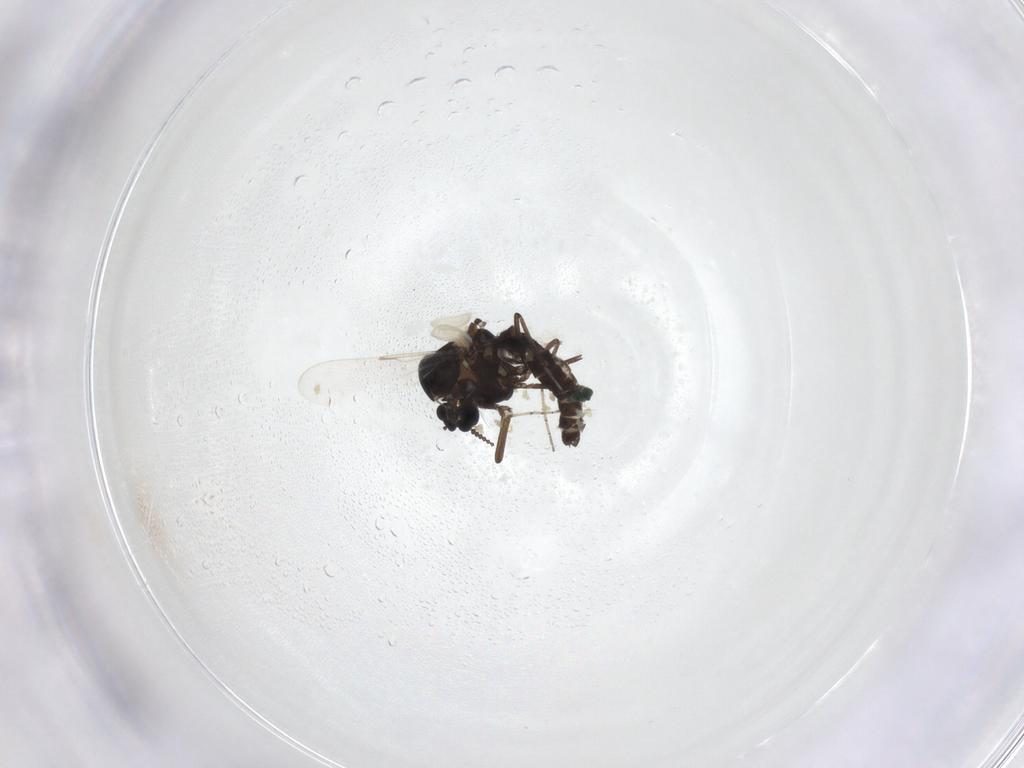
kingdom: Animalia
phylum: Arthropoda
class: Insecta
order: Diptera
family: Ceratopogonidae
